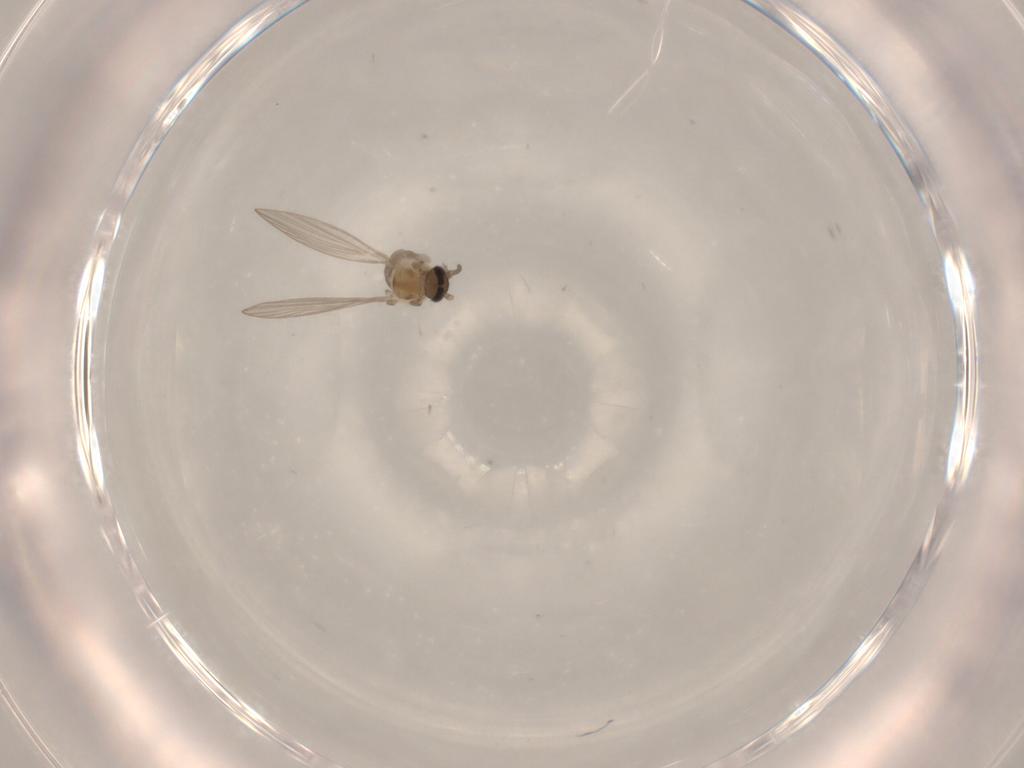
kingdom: Animalia
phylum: Arthropoda
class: Insecta
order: Diptera
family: Psychodidae
